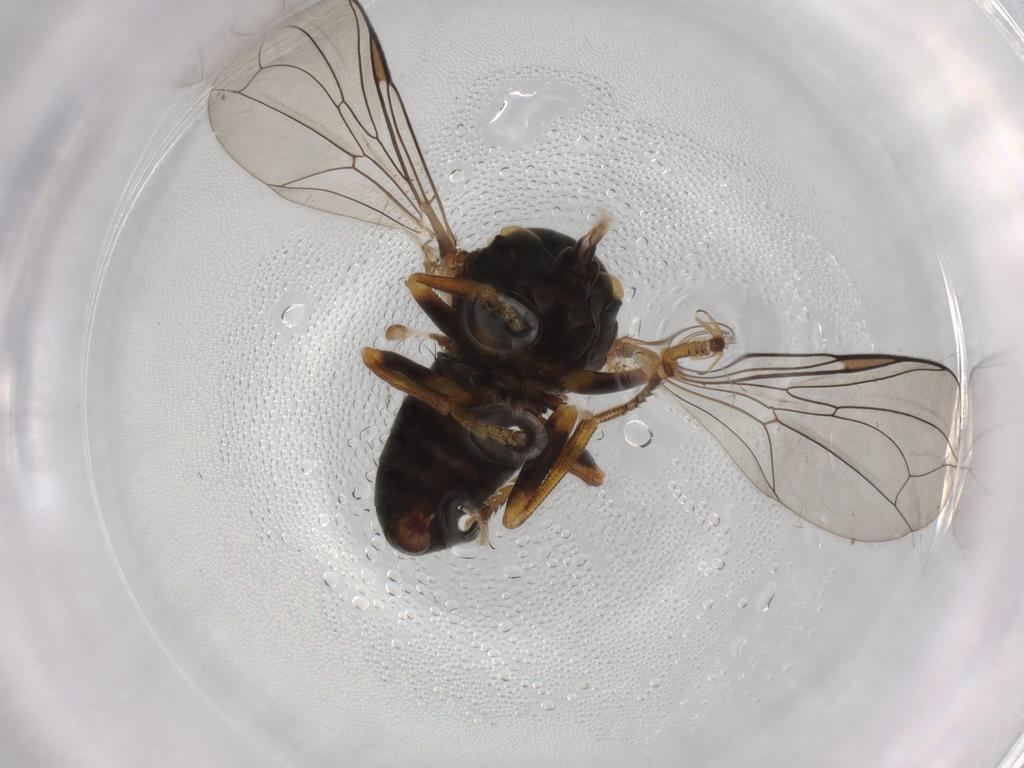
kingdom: Animalia
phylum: Arthropoda
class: Insecta
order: Diptera
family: Pipunculidae
